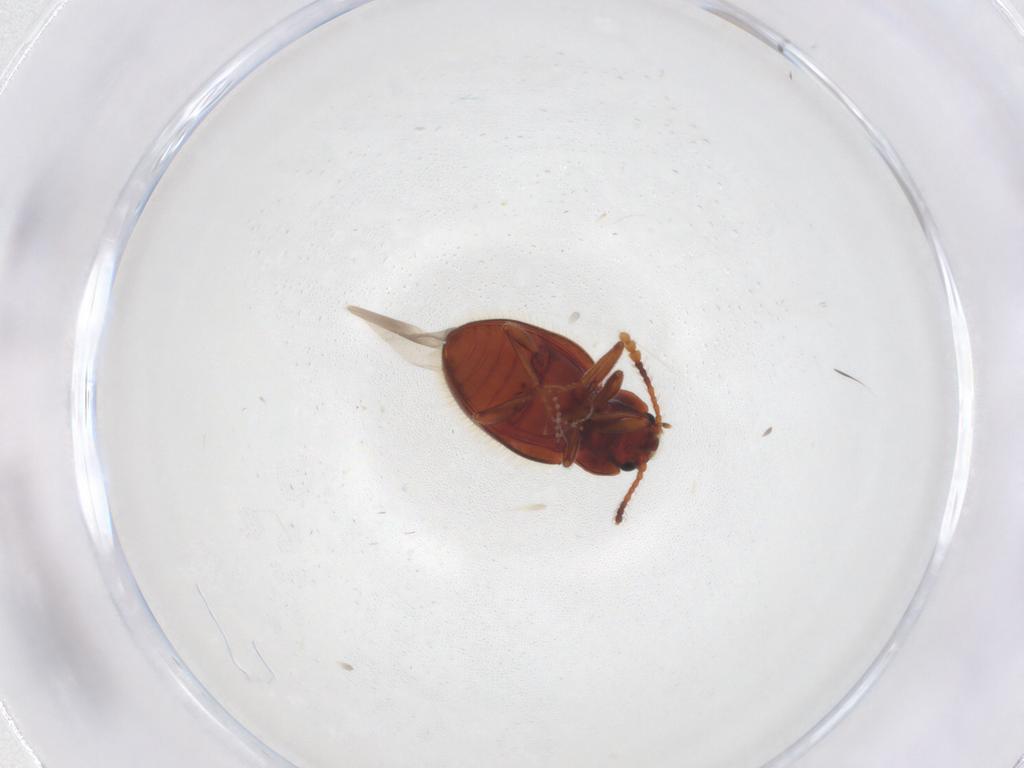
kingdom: Animalia
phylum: Arthropoda
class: Insecta
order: Coleoptera
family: Erotylidae
